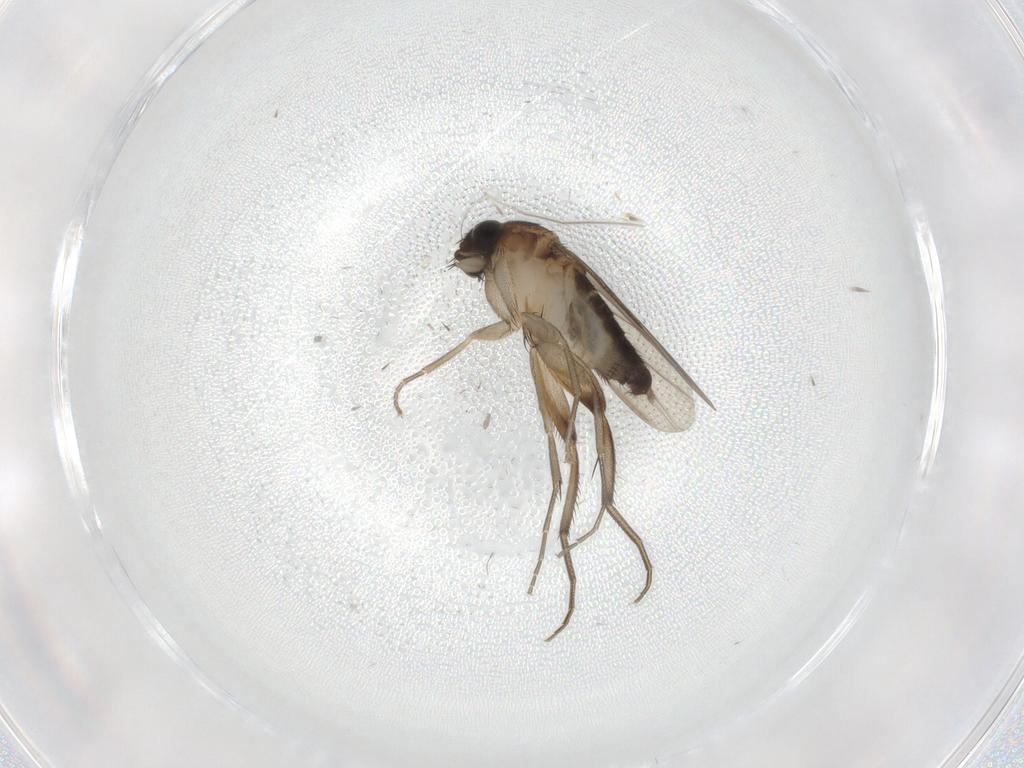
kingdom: Animalia
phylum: Arthropoda
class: Insecta
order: Diptera
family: Phoridae
